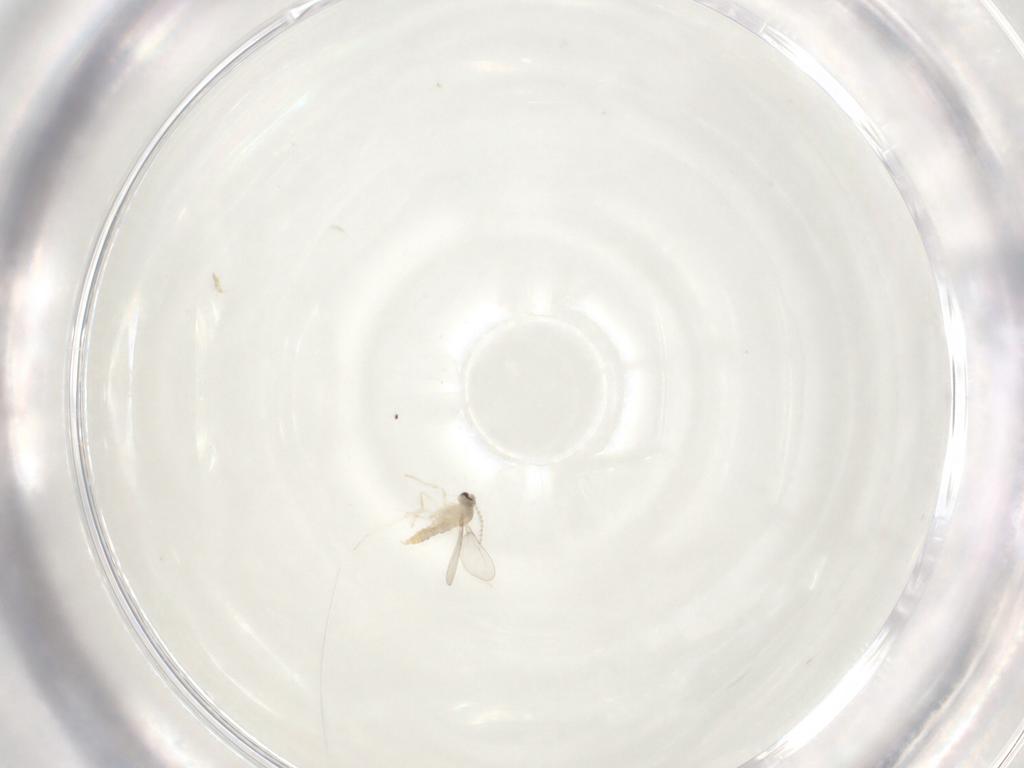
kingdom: Animalia
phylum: Arthropoda
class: Insecta
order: Diptera
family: Cecidomyiidae
